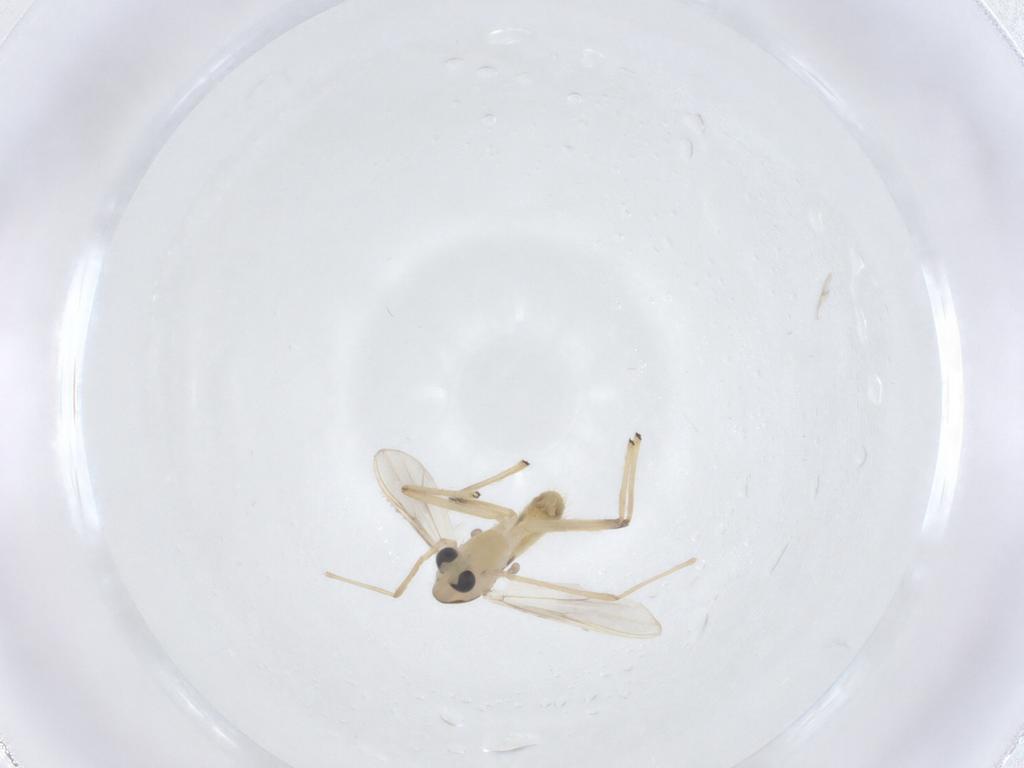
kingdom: Animalia
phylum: Arthropoda
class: Insecta
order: Diptera
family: Chironomidae
